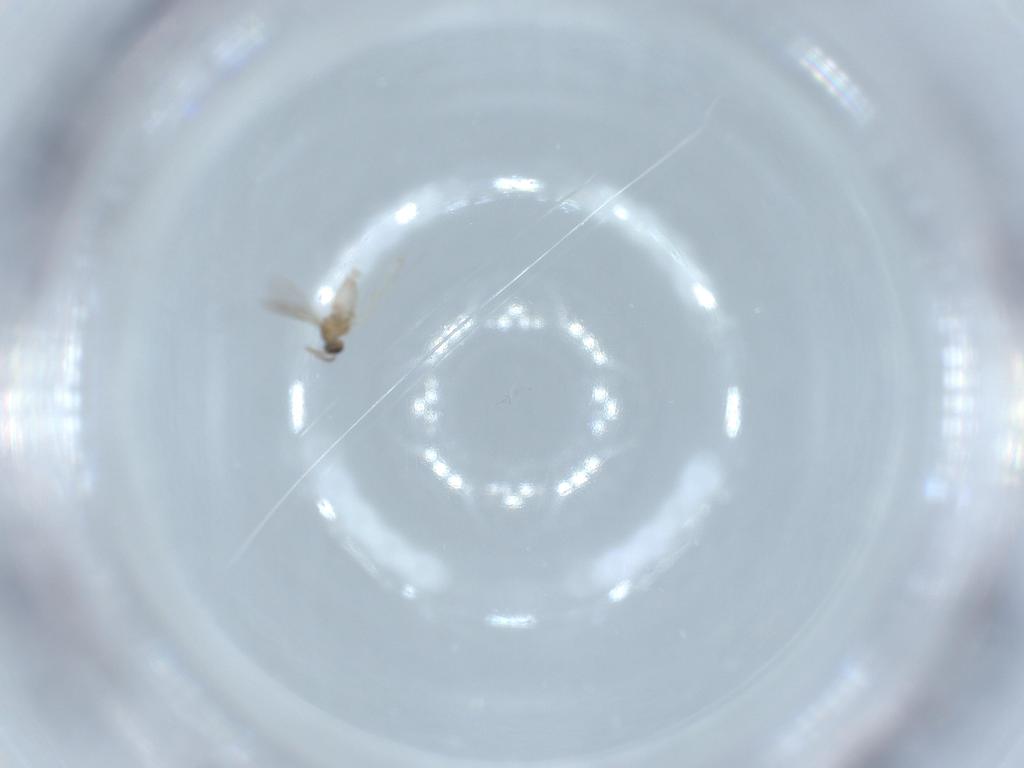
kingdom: Animalia
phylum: Arthropoda
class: Insecta
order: Diptera
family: Cecidomyiidae
